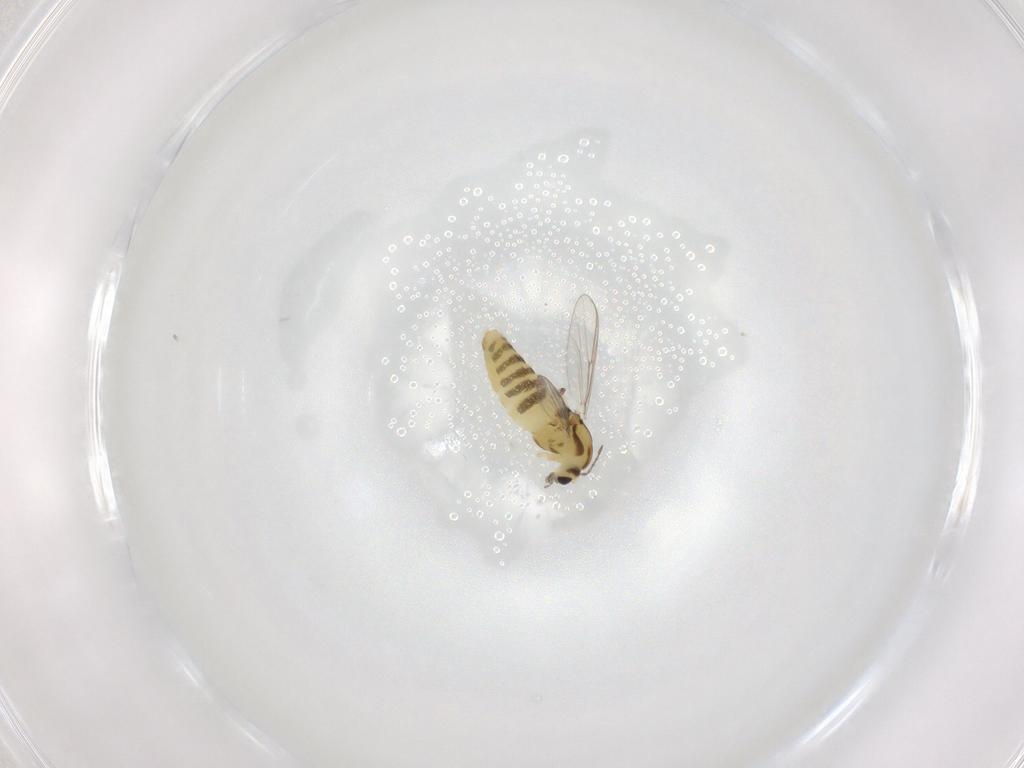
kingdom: Animalia
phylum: Arthropoda
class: Insecta
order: Diptera
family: Chironomidae
